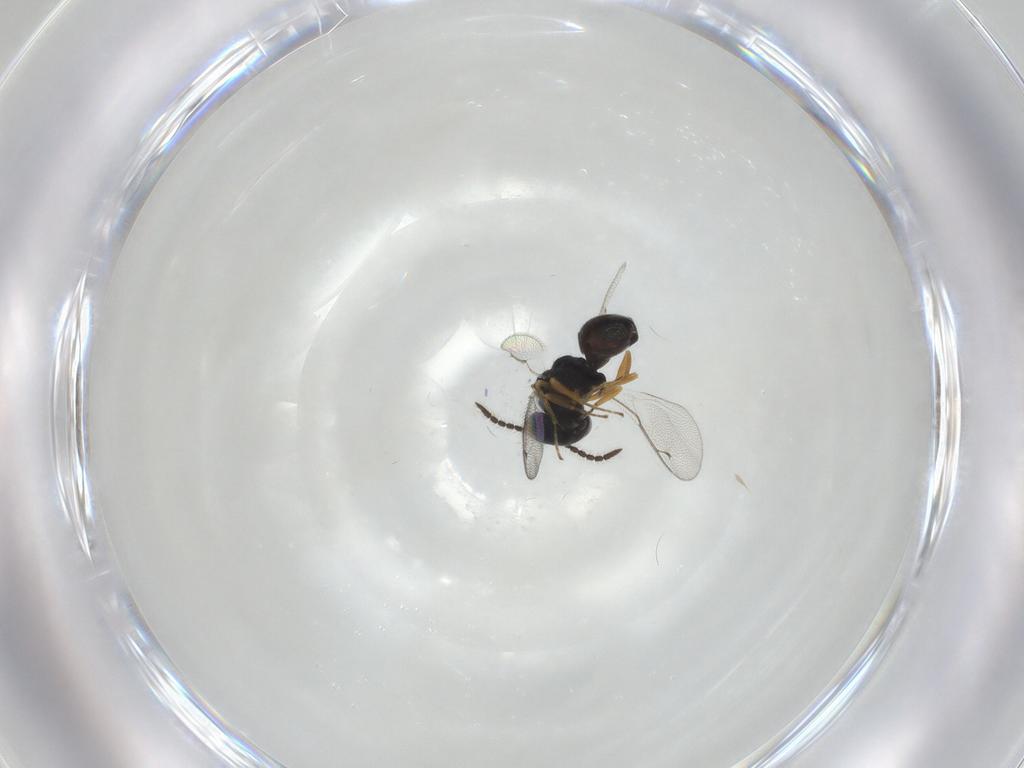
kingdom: Animalia
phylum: Arthropoda
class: Insecta
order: Hymenoptera
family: Pteromalidae
